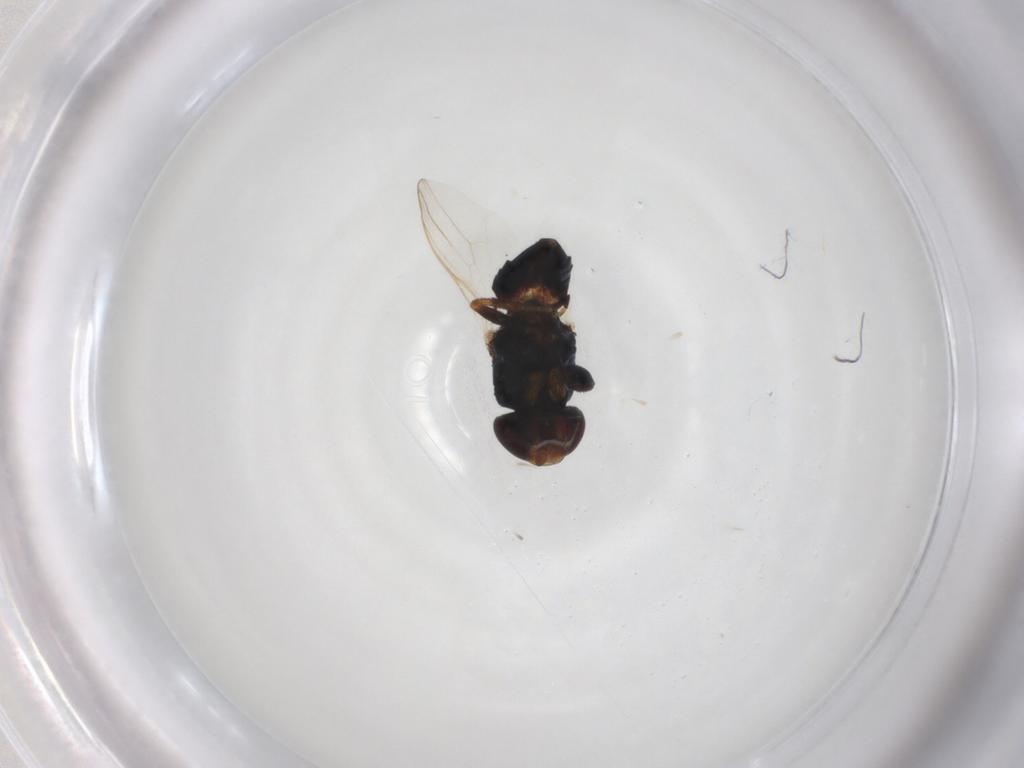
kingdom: Animalia
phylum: Arthropoda
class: Insecta
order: Diptera
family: Chloropidae
